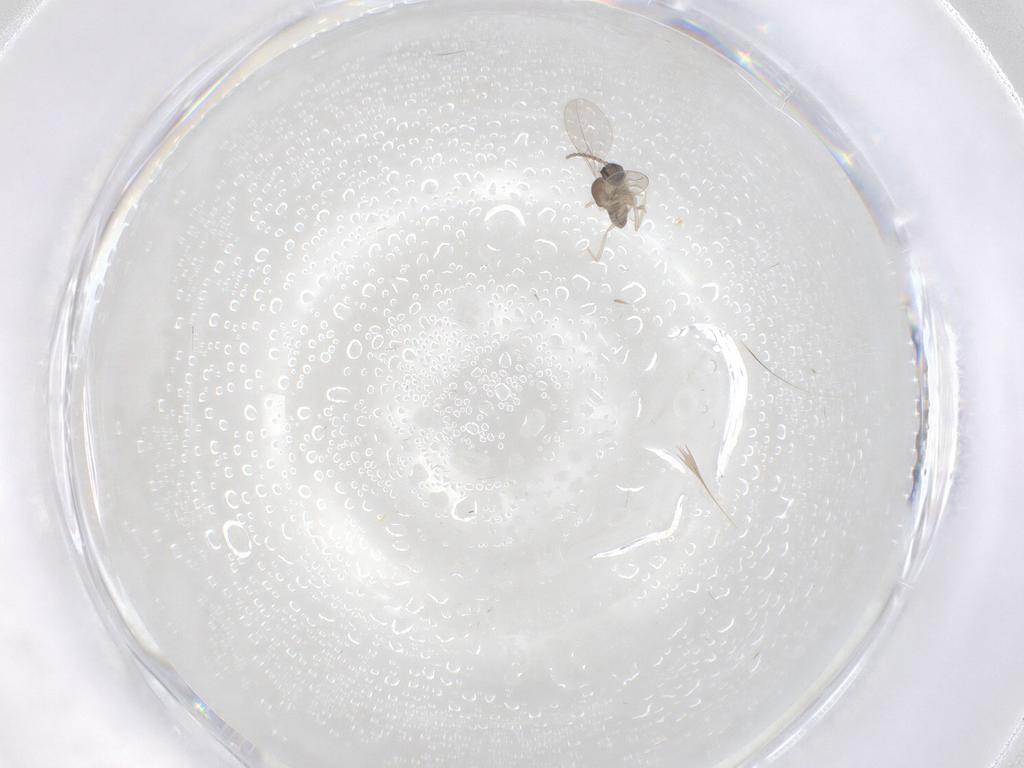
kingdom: Animalia
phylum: Arthropoda
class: Insecta
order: Diptera
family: Cecidomyiidae
